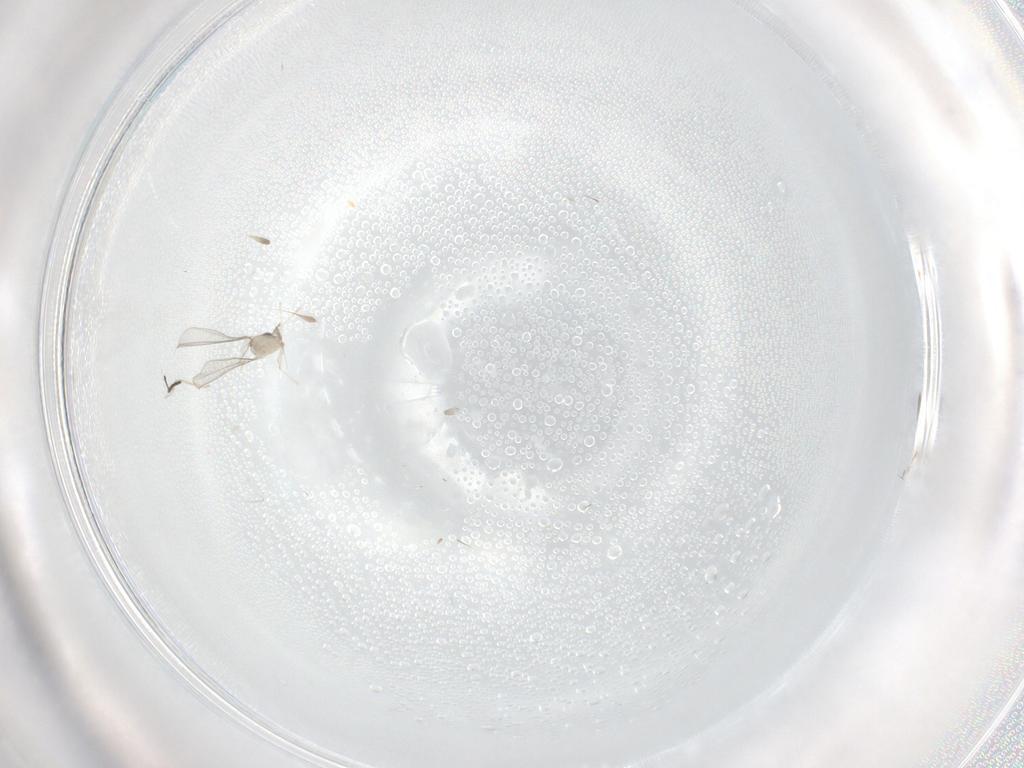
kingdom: Animalia
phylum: Arthropoda
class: Insecta
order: Diptera
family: Cecidomyiidae
